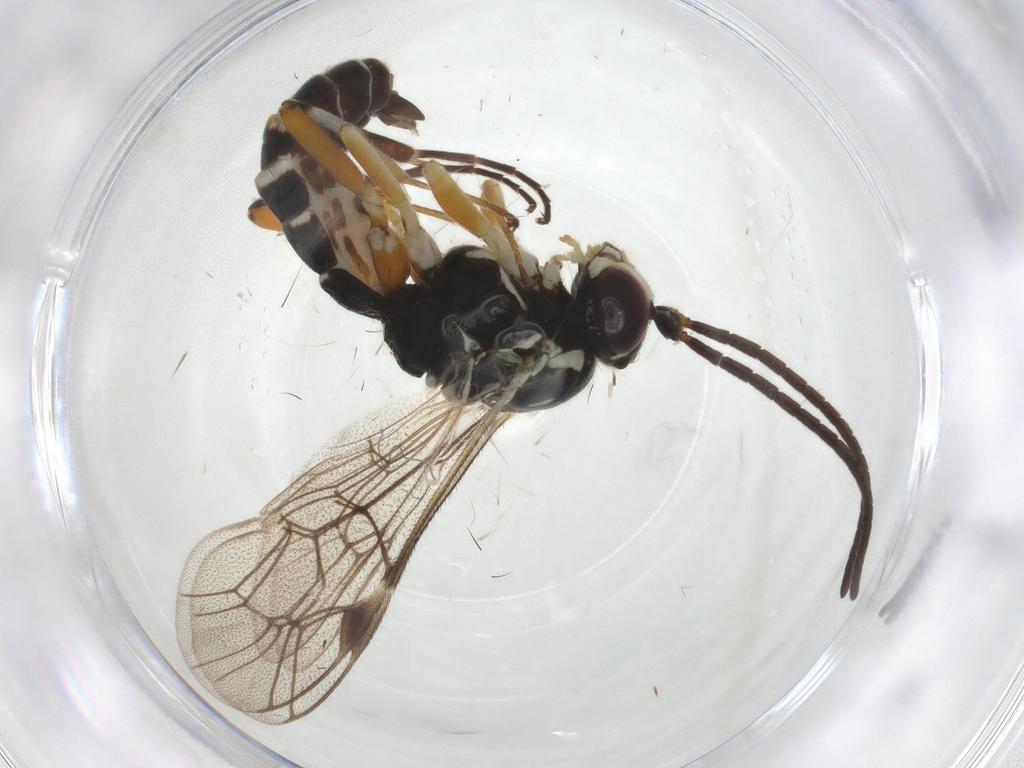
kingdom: Animalia
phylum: Arthropoda
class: Insecta
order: Hymenoptera
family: Ichneumonidae
